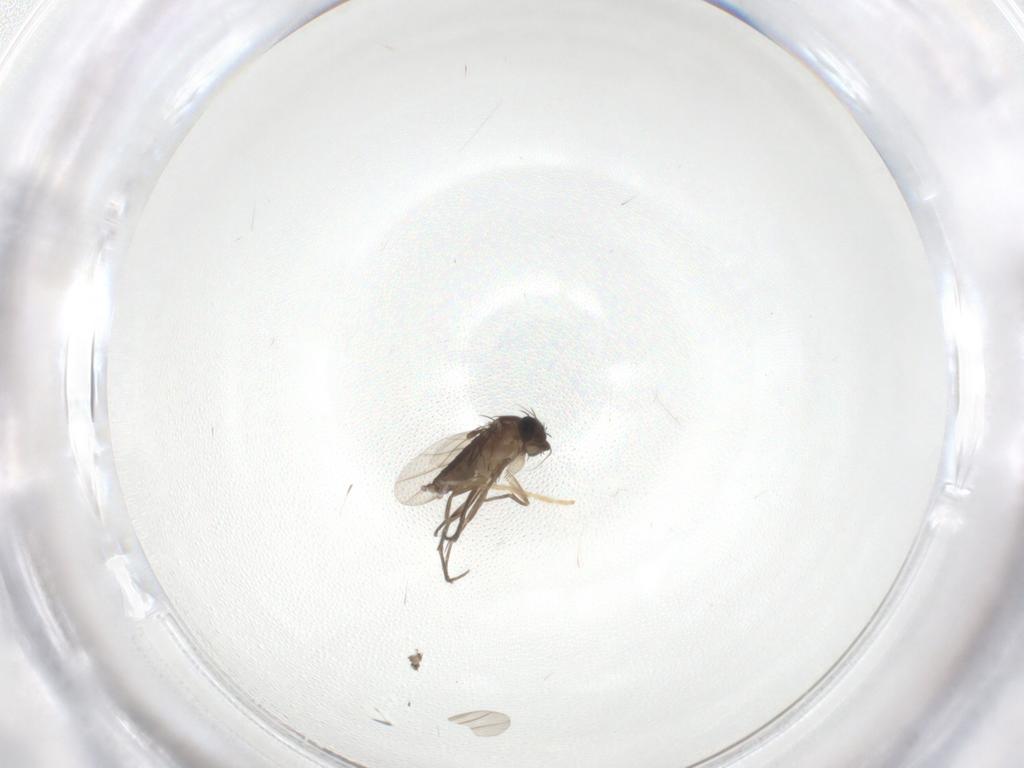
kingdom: Animalia
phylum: Arthropoda
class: Insecta
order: Diptera
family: Phoridae
